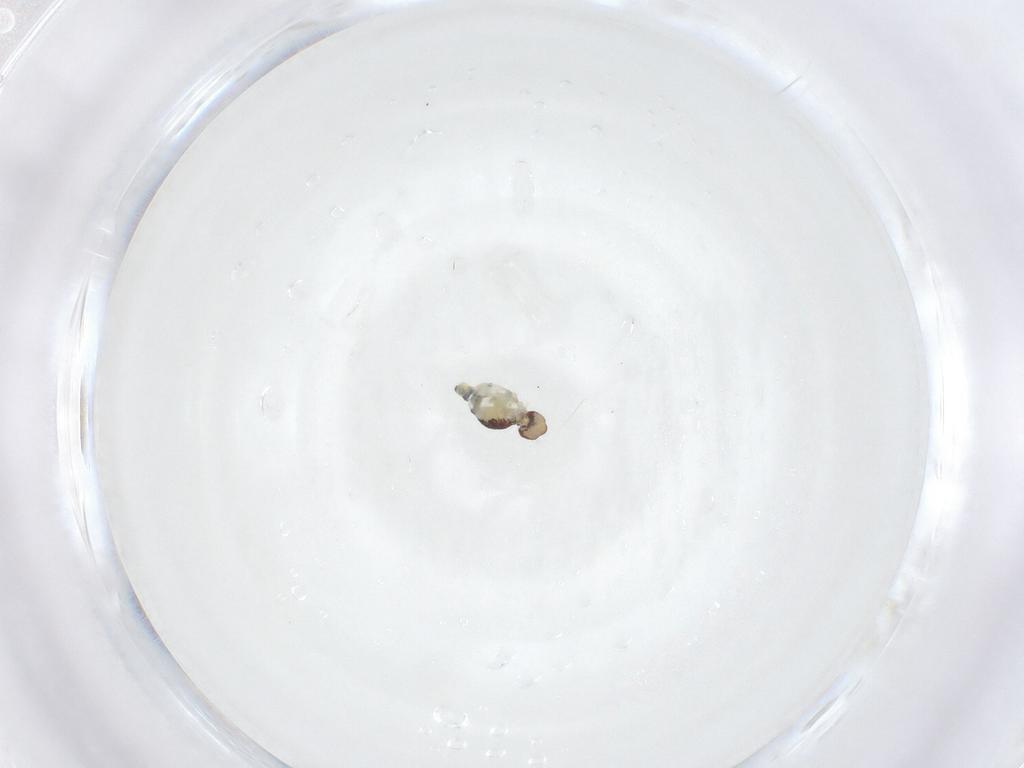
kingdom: Animalia
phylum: Arthropoda
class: Collembola
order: Symphypleona
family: Bourletiellidae
